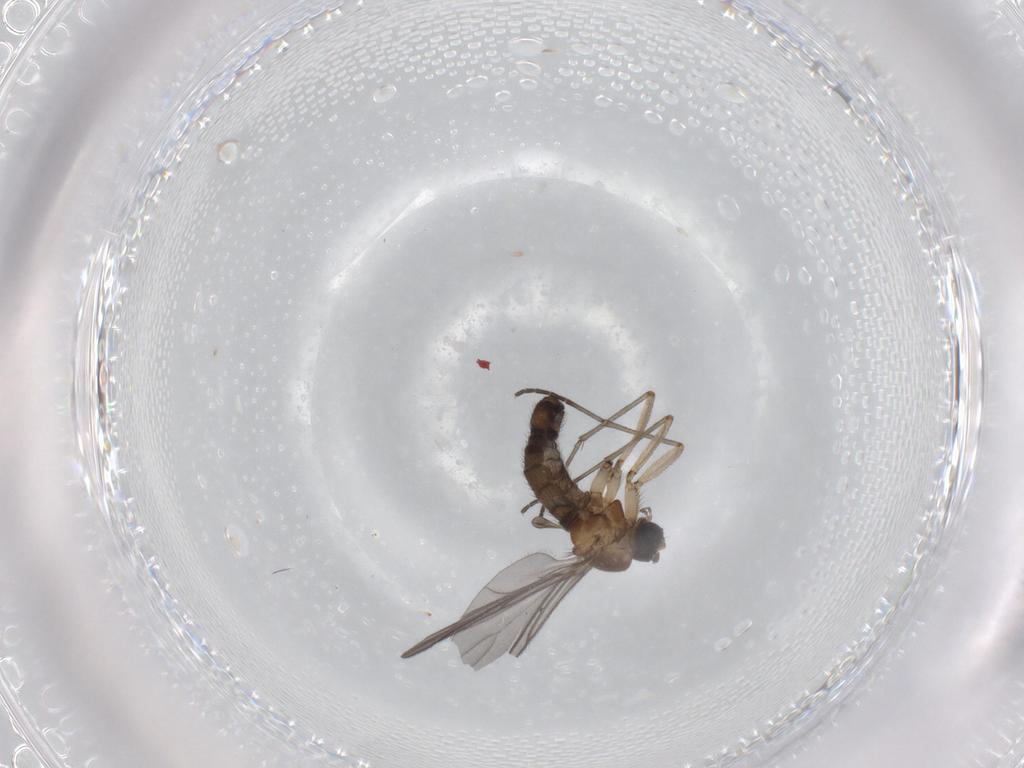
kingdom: Animalia
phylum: Arthropoda
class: Insecta
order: Diptera
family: Sciaridae
